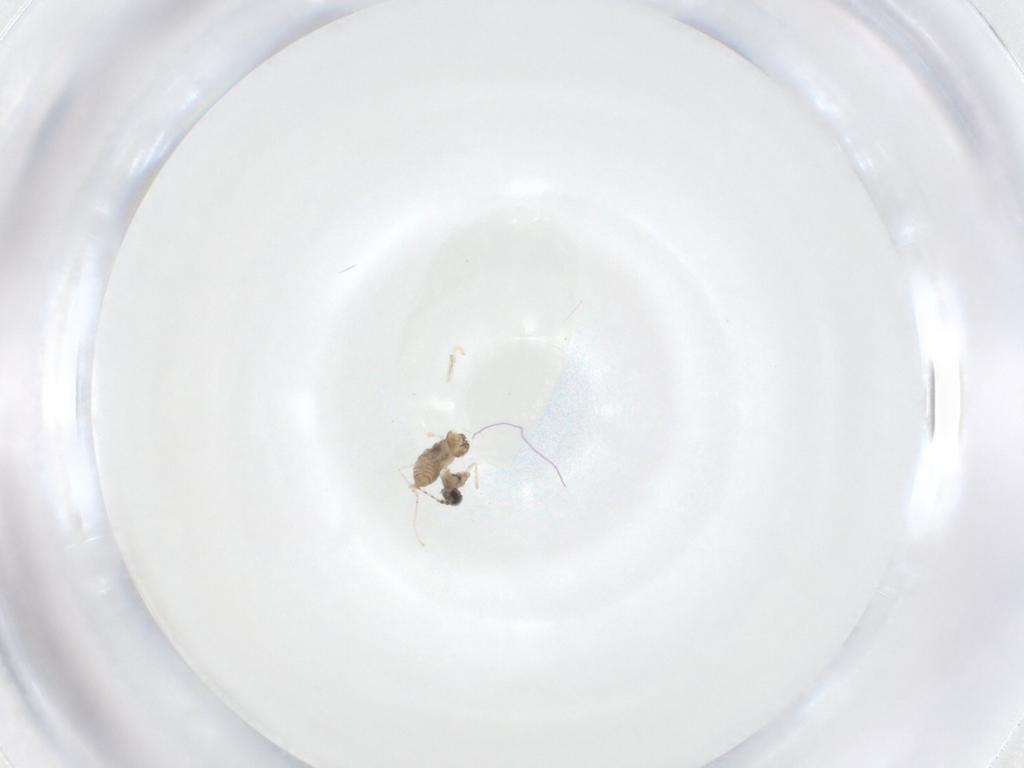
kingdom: Animalia
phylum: Arthropoda
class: Insecta
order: Diptera
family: Cecidomyiidae
